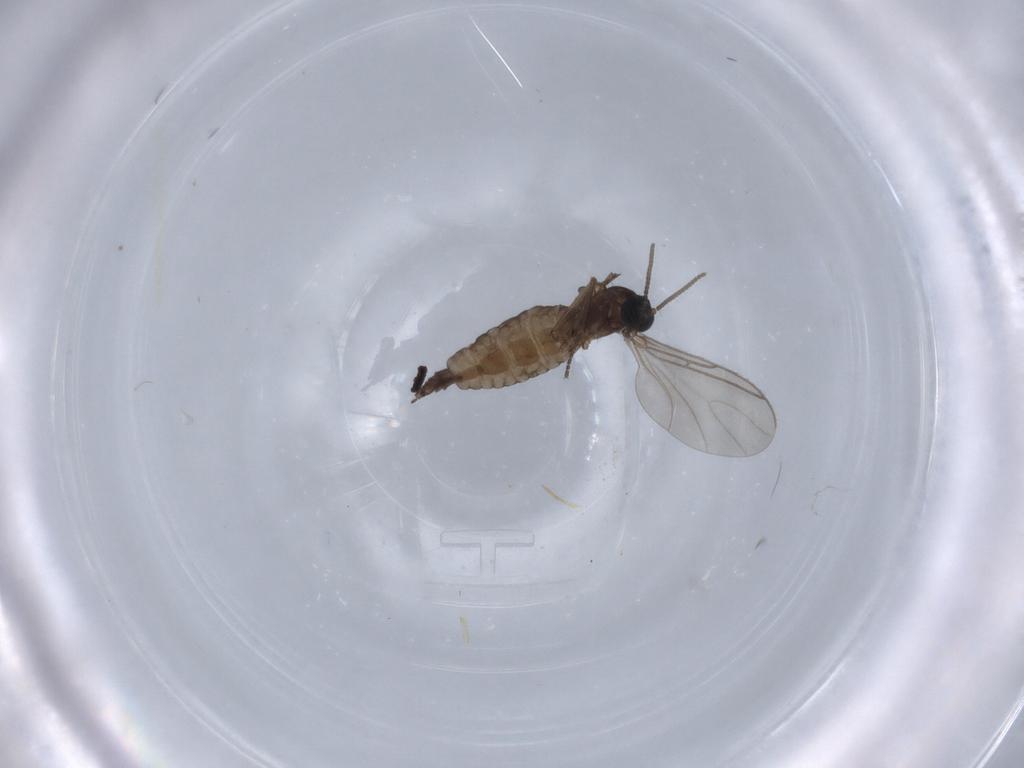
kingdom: Animalia
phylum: Arthropoda
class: Insecta
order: Diptera
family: Sciaridae
